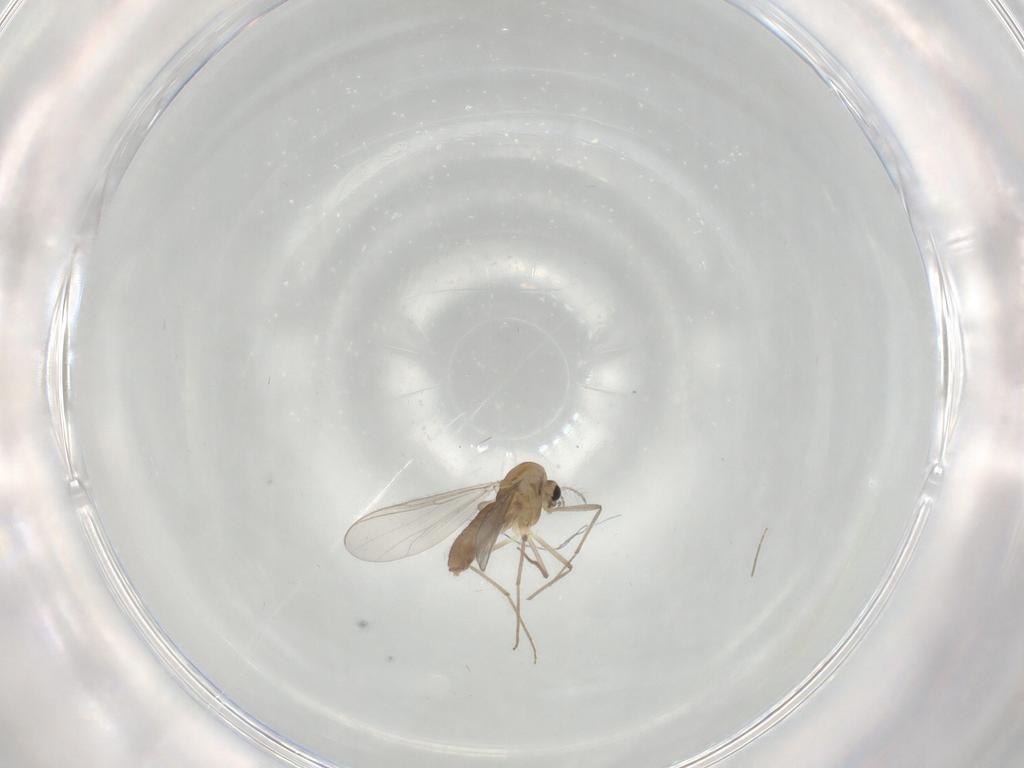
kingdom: Animalia
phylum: Arthropoda
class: Insecta
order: Diptera
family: Chironomidae
